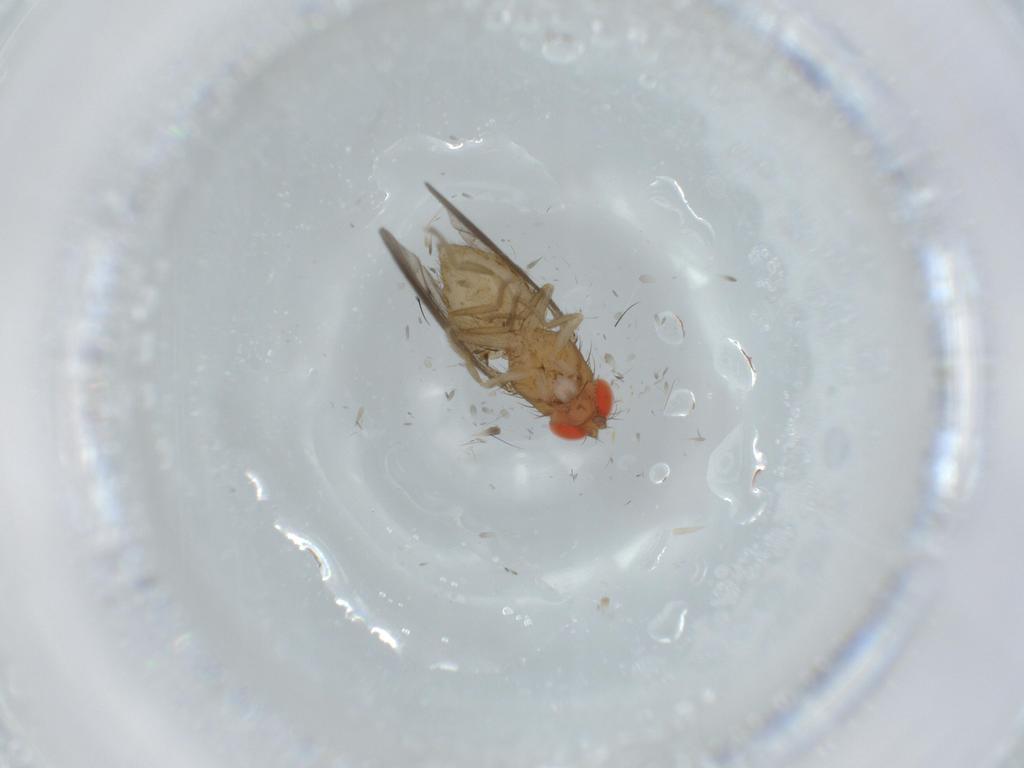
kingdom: Animalia
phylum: Arthropoda
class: Insecta
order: Diptera
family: Drosophilidae
